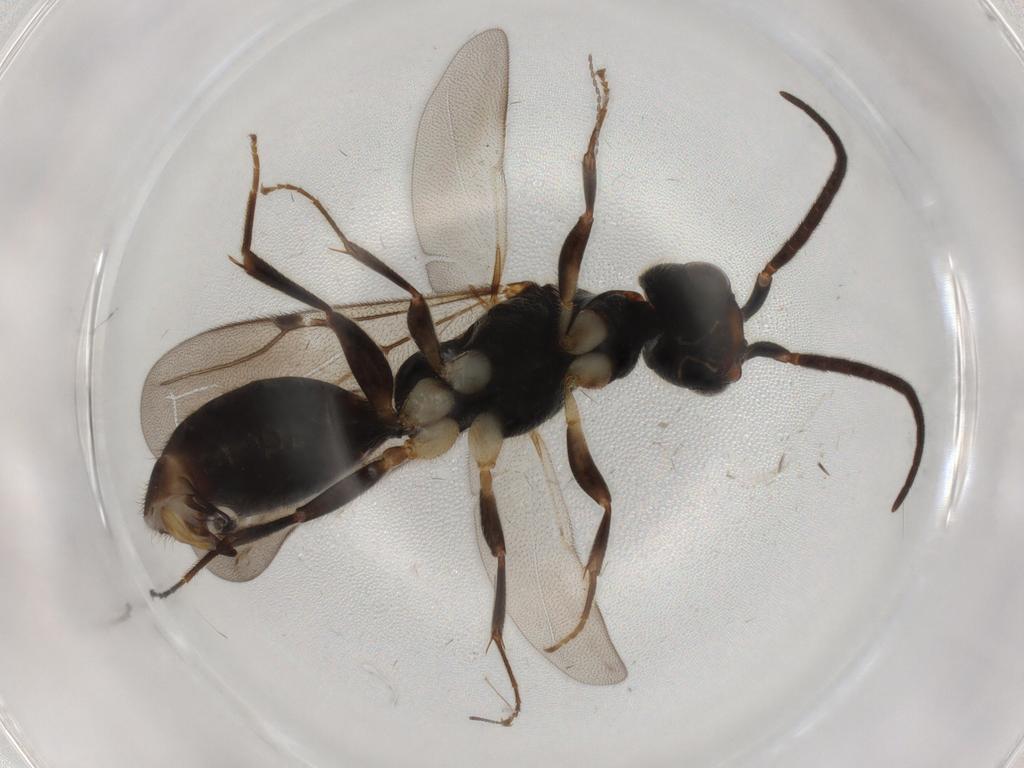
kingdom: Animalia
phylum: Arthropoda
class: Insecta
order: Hymenoptera
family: Bethylidae
